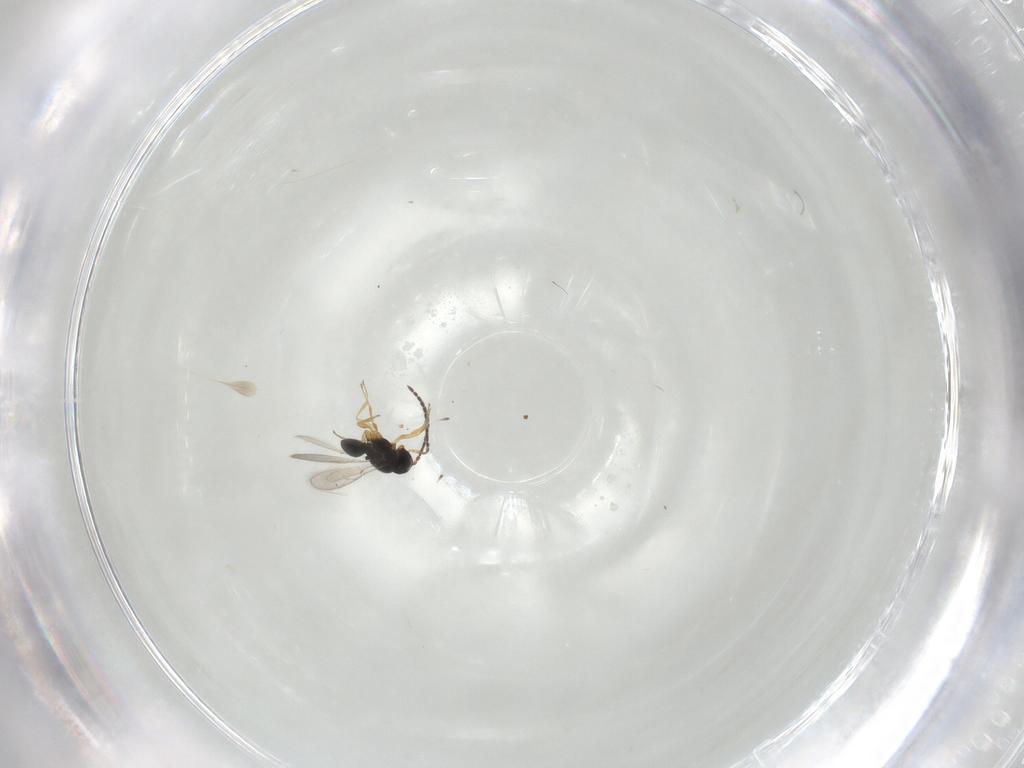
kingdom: Animalia
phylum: Arthropoda
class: Insecta
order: Hymenoptera
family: Scelionidae
